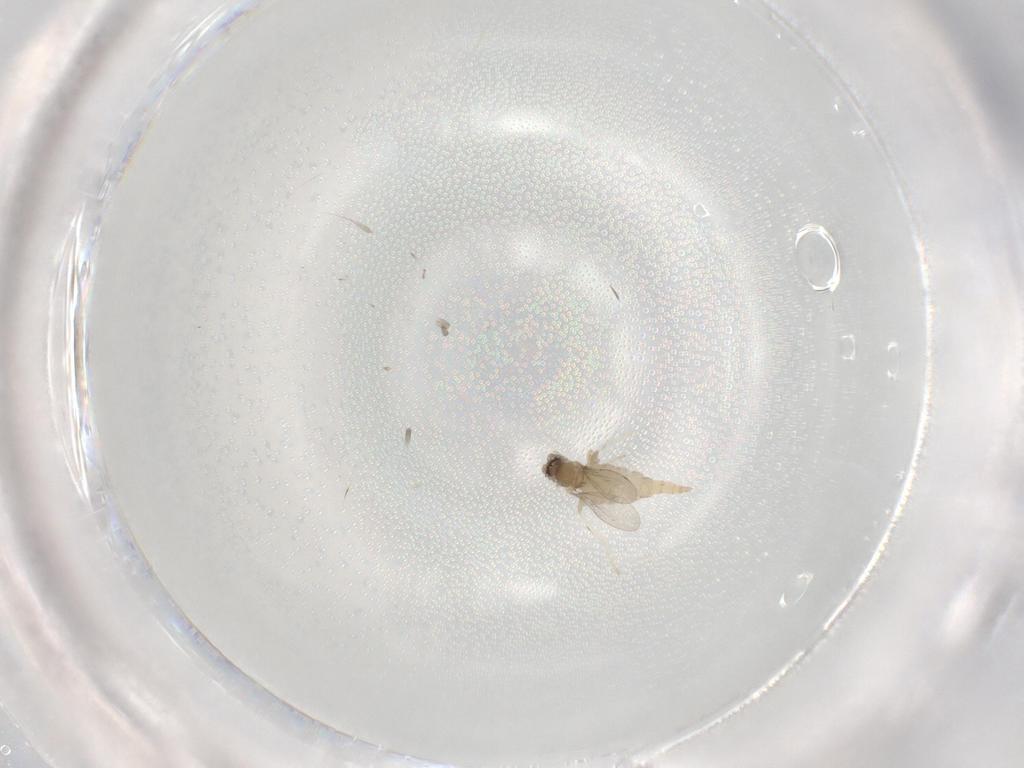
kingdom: Animalia
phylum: Arthropoda
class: Insecta
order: Diptera
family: Cecidomyiidae
